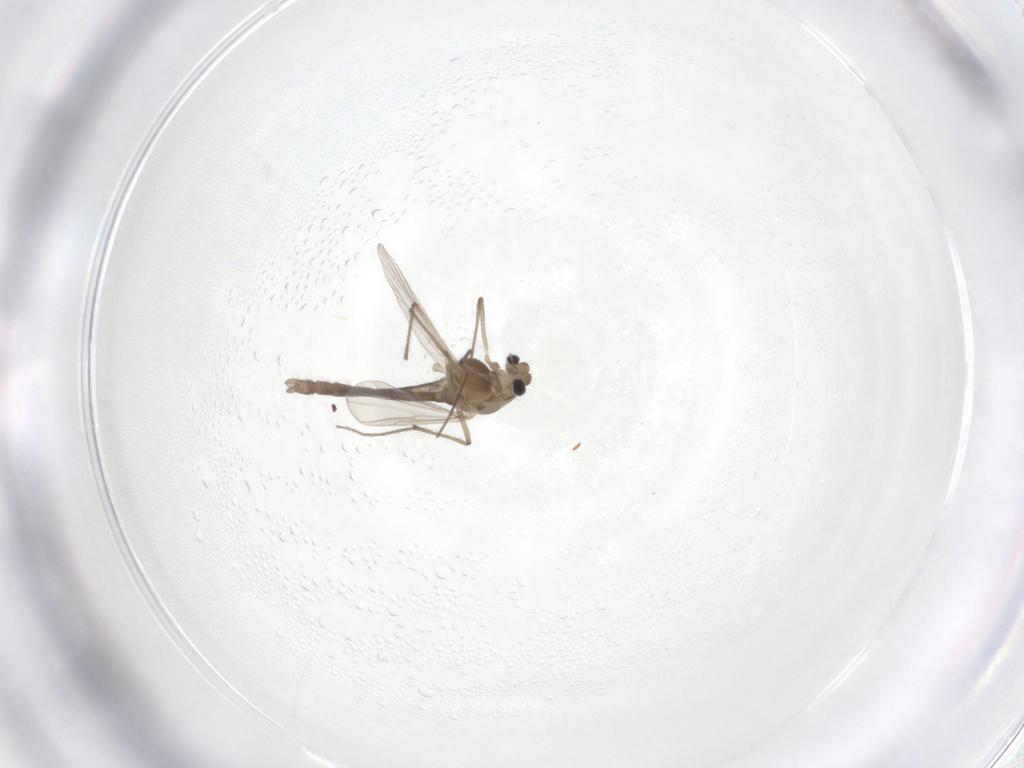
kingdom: Animalia
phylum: Arthropoda
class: Insecta
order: Diptera
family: Chironomidae
